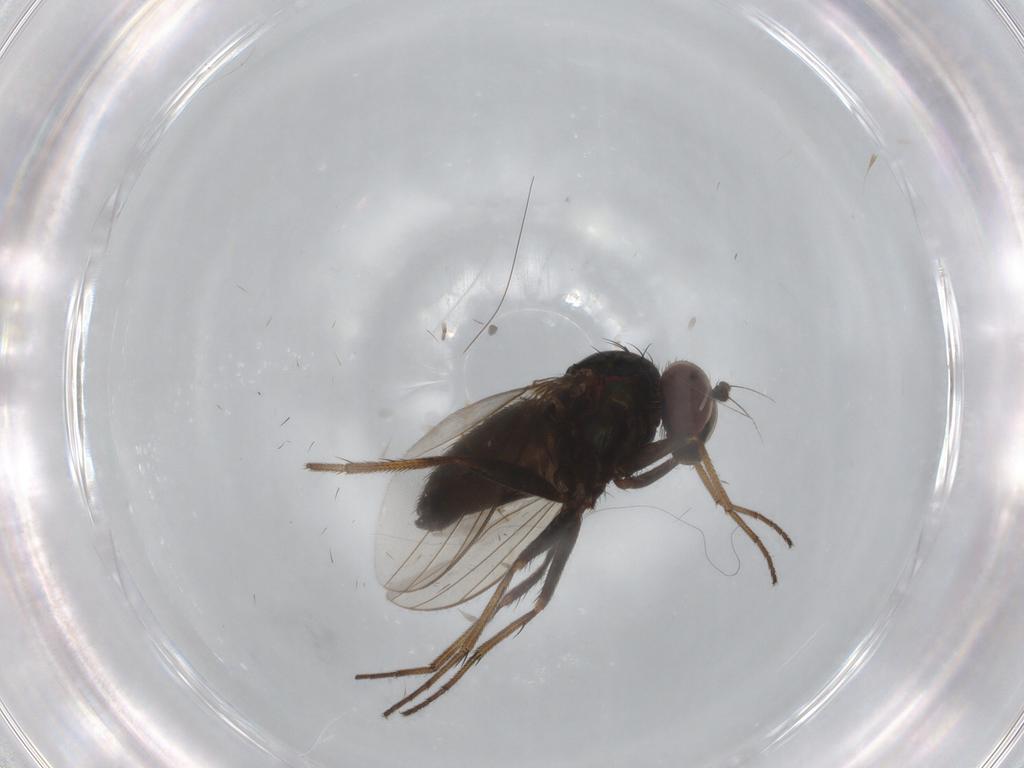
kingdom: Animalia
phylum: Arthropoda
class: Insecta
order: Diptera
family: Dolichopodidae
